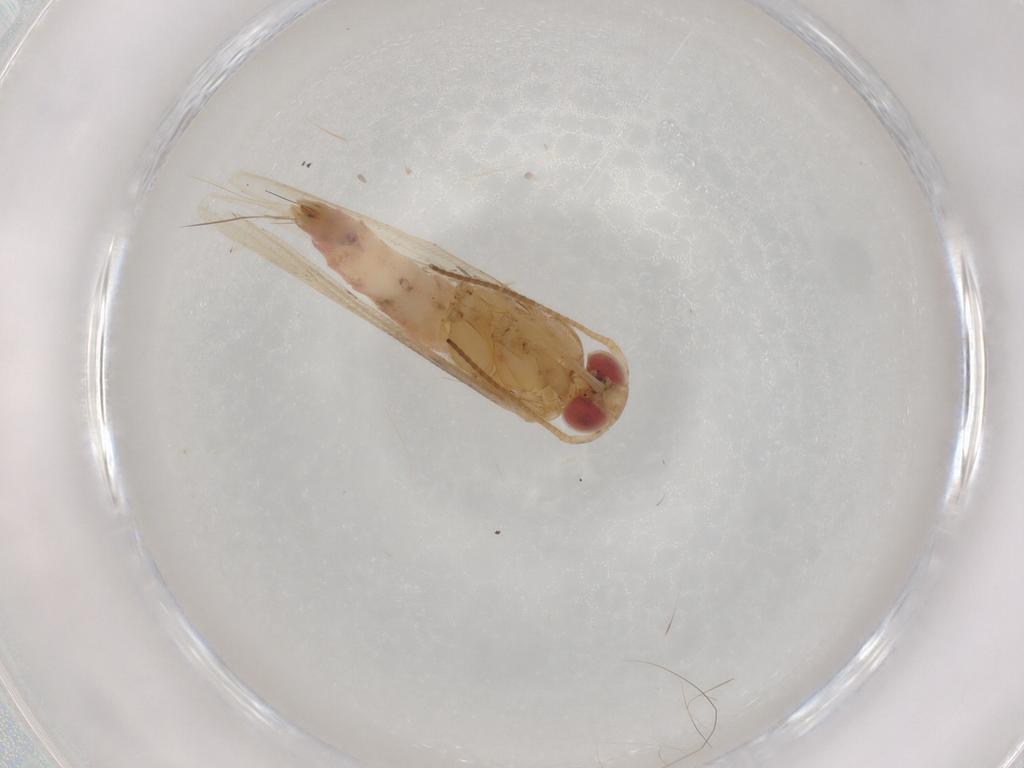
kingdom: Animalia
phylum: Arthropoda
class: Insecta
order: Lepidoptera
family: Cosmopterigidae
